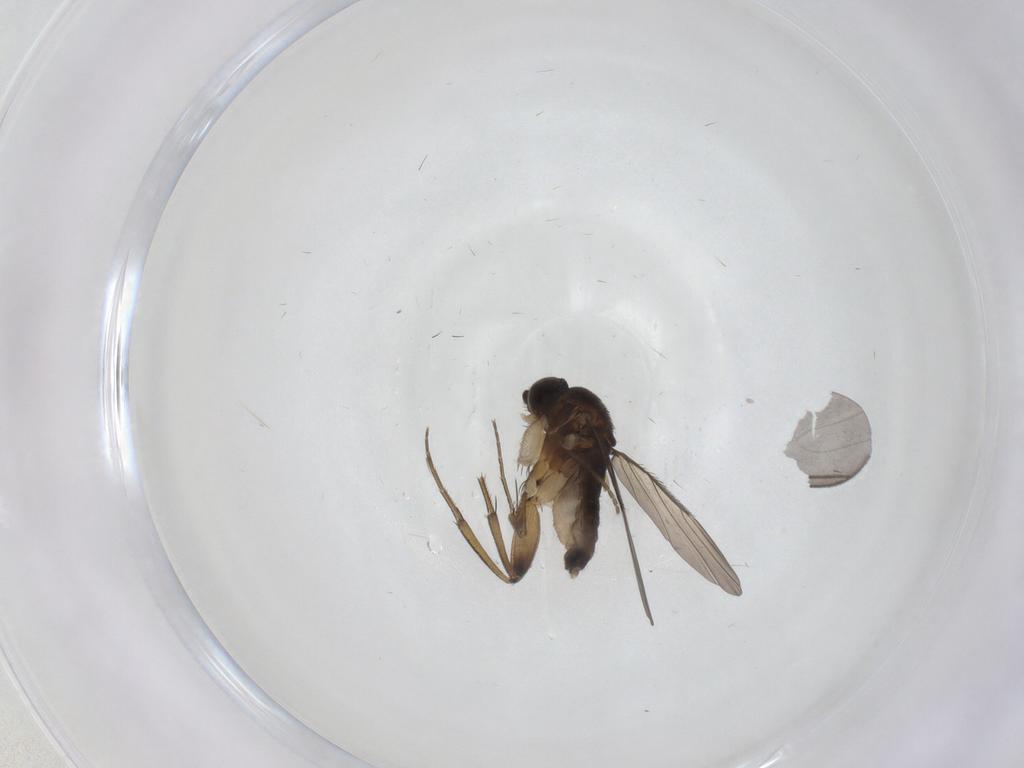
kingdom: Animalia
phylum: Arthropoda
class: Insecta
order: Diptera
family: Phoridae
